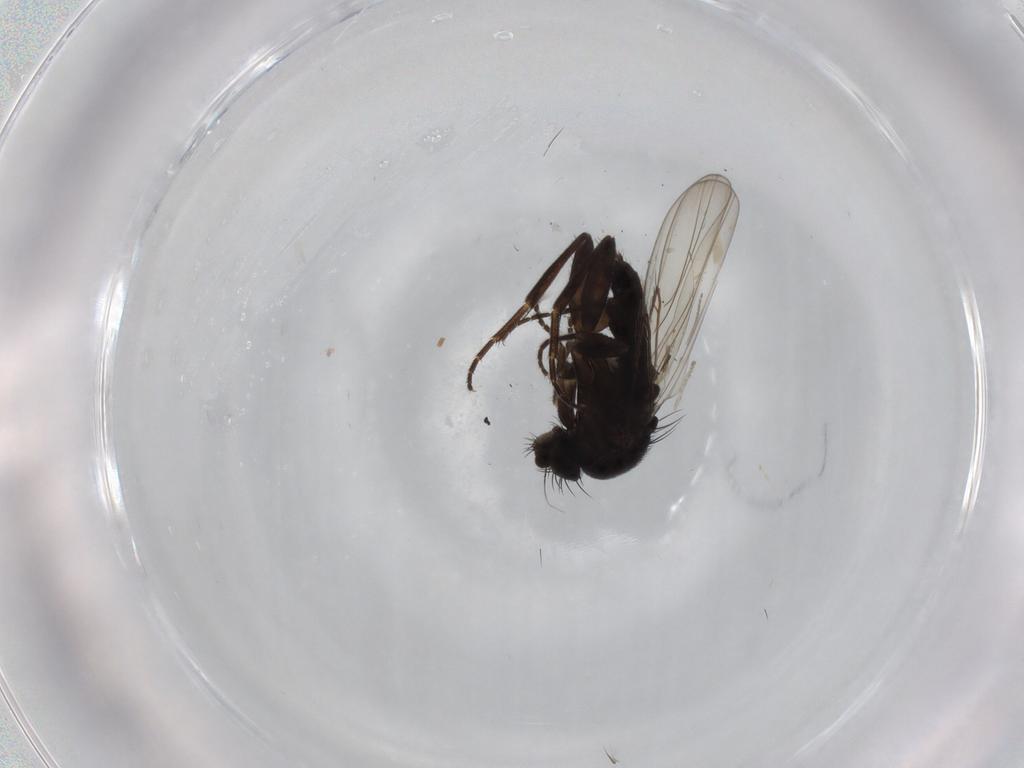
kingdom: Animalia
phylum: Arthropoda
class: Insecta
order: Diptera
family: Phoridae
